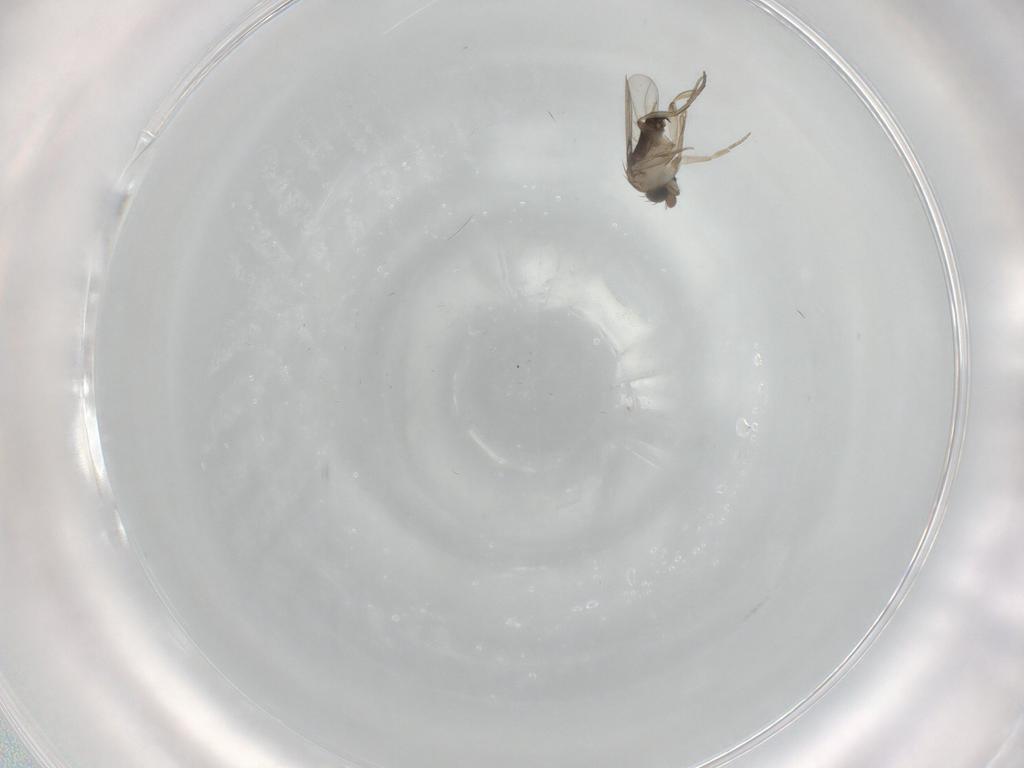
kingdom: Animalia
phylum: Arthropoda
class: Insecta
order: Diptera
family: Phoridae
